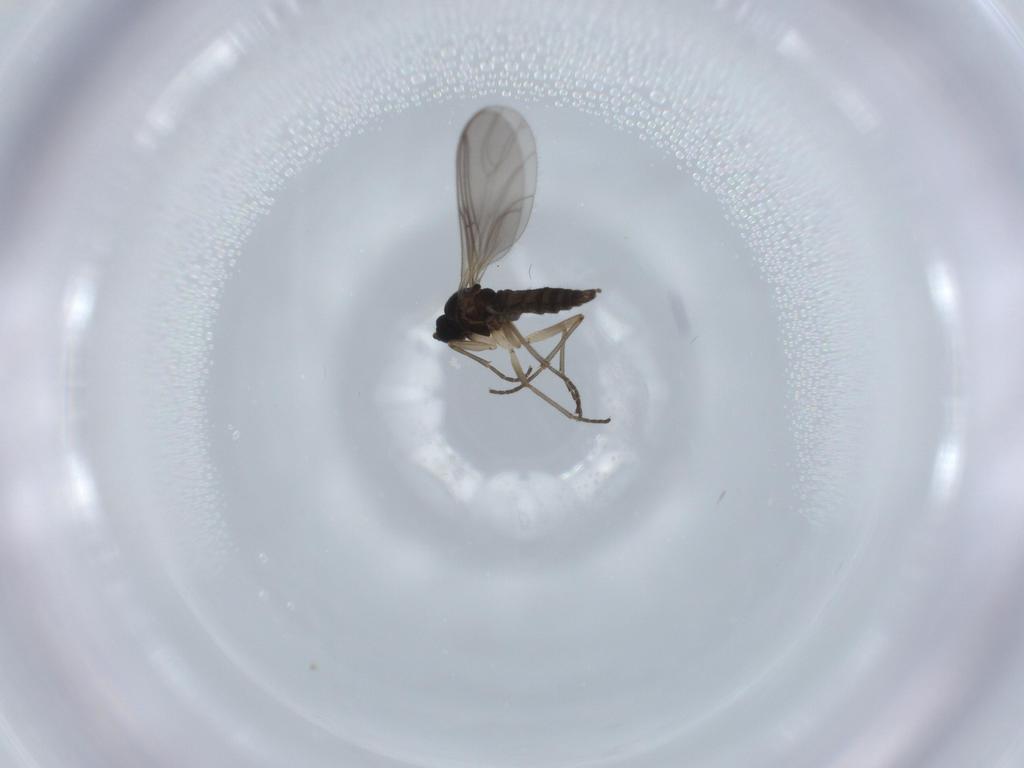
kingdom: Animalia
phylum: Arthropoda
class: Insecta
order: Diptera
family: Sciaridae
